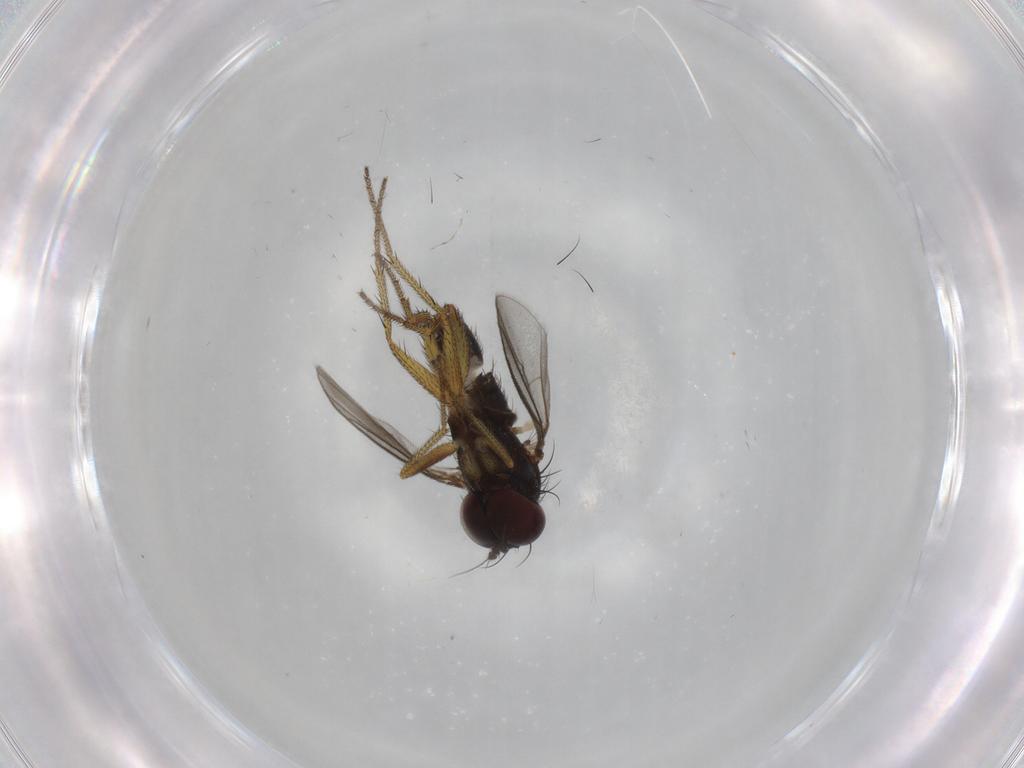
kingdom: Animalia
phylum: Arthropoda
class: Insecta
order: Diptera
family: Dolichopodidae
